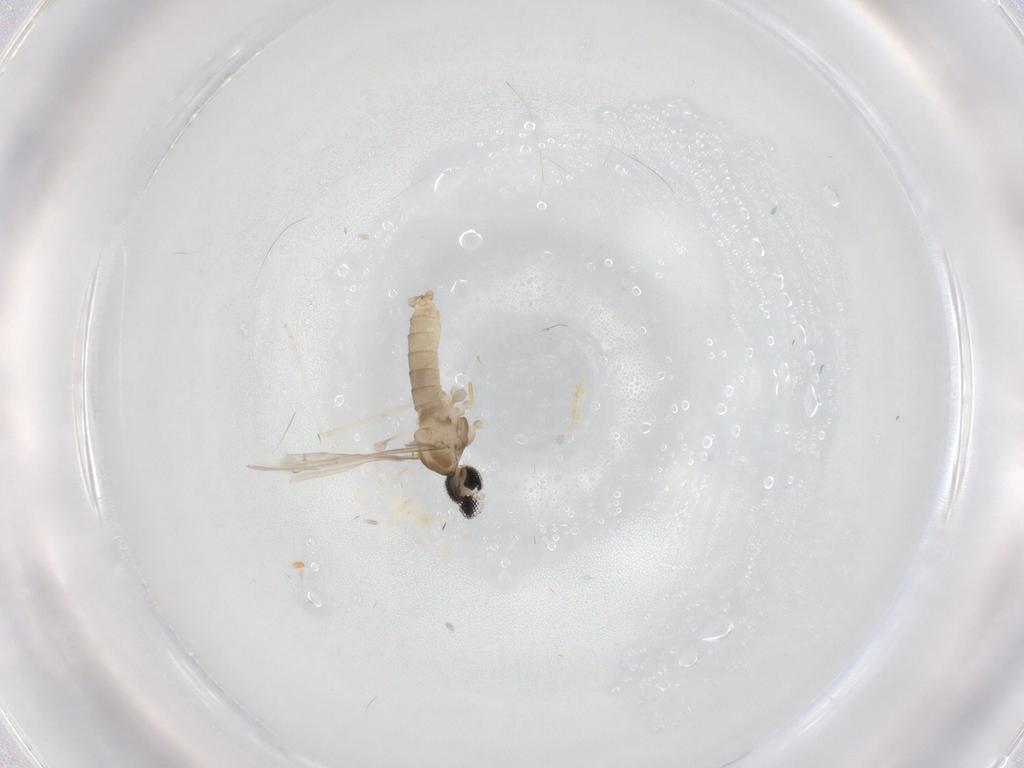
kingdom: Animalia
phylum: Arthropoda
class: Insecta
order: Diptera
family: Cecidomyiidae
